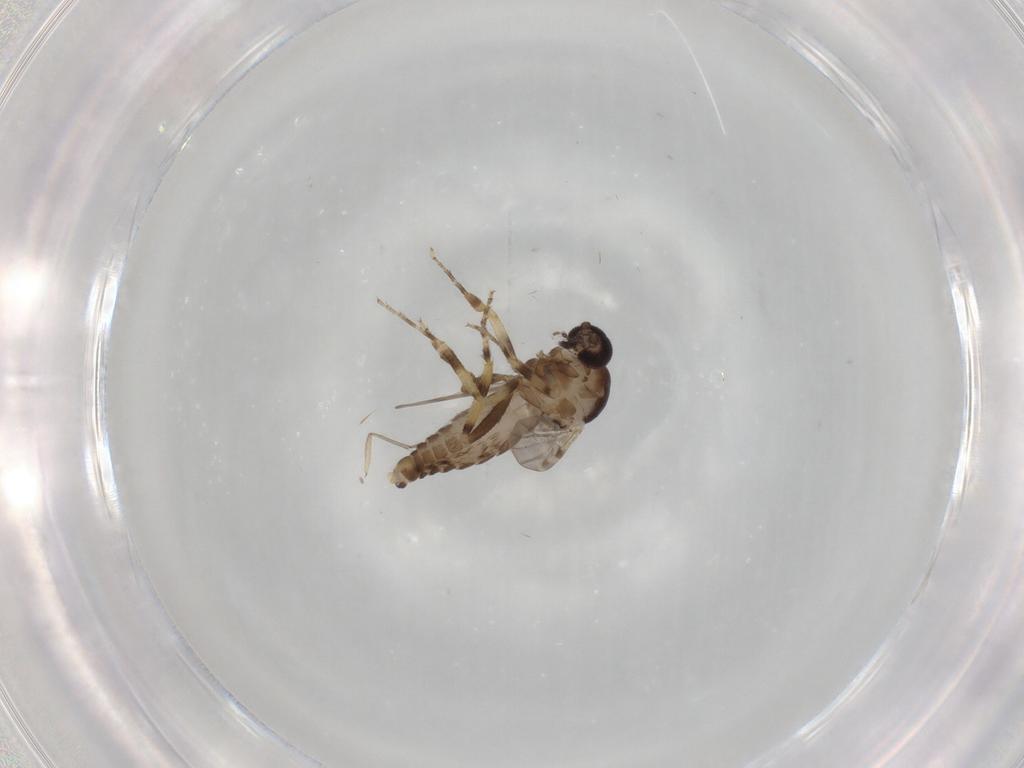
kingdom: Animalia
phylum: Arthropoda
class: Insecta
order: Diptera
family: Ceratopogonidae
